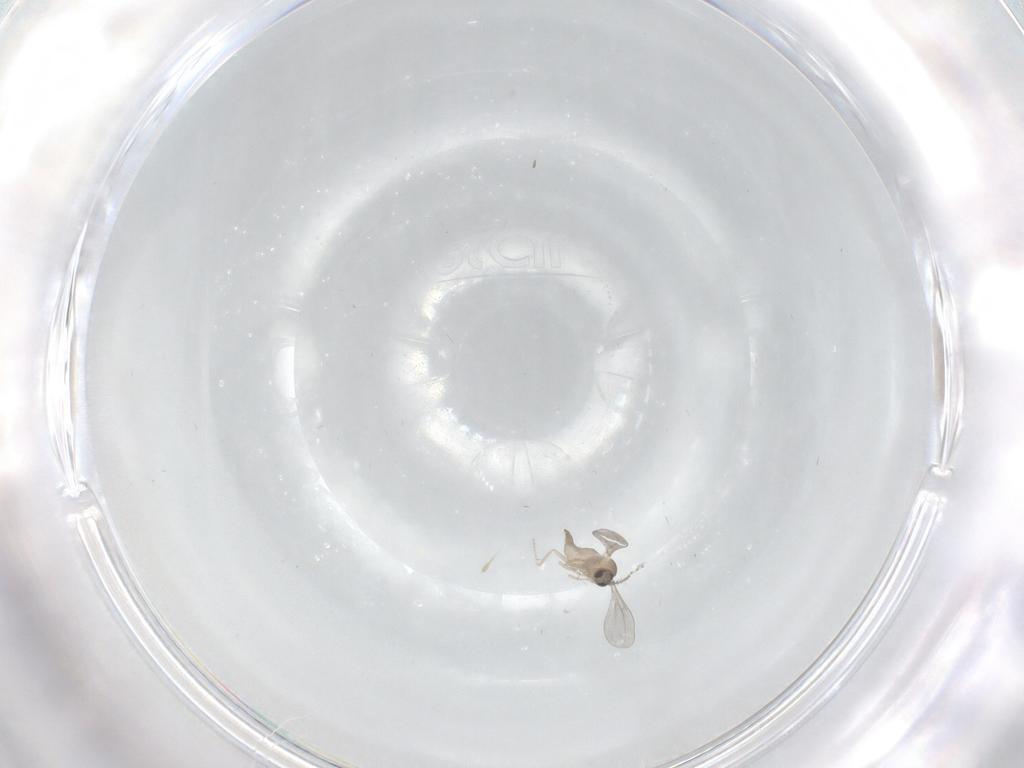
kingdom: Animalia
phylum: Arthropoda
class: Insecta
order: Diptera
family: Cecidomyiidae
